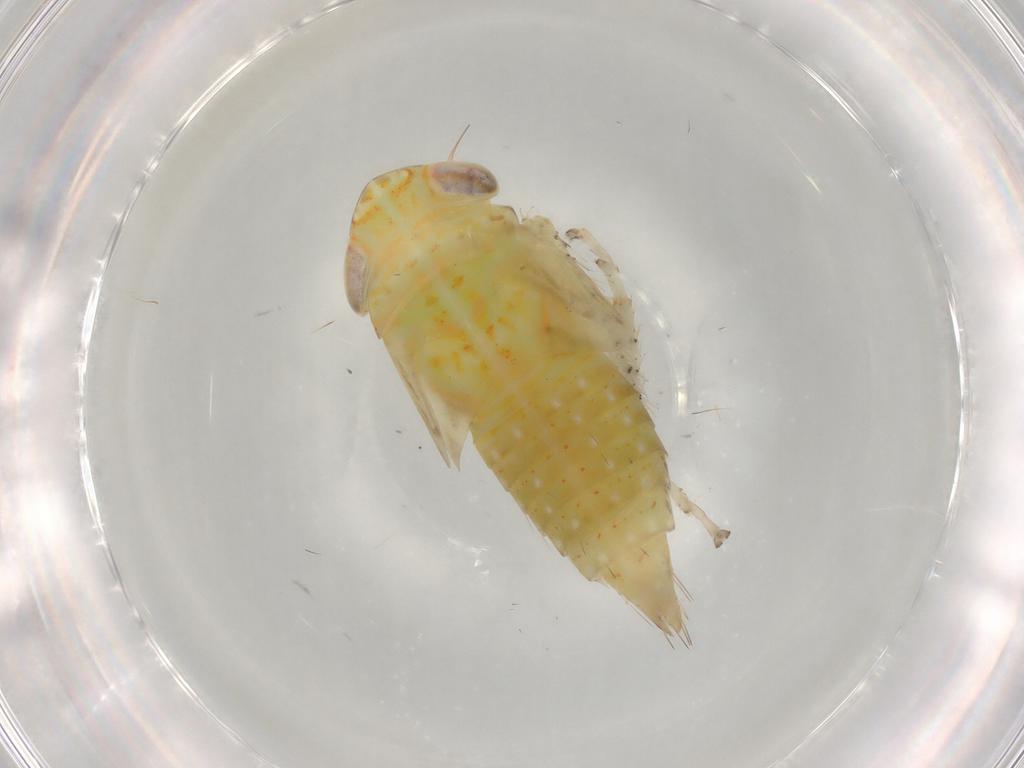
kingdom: Animalia
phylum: Arthropoda
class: Insecta
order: Hemiptera
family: Cicadellidae
